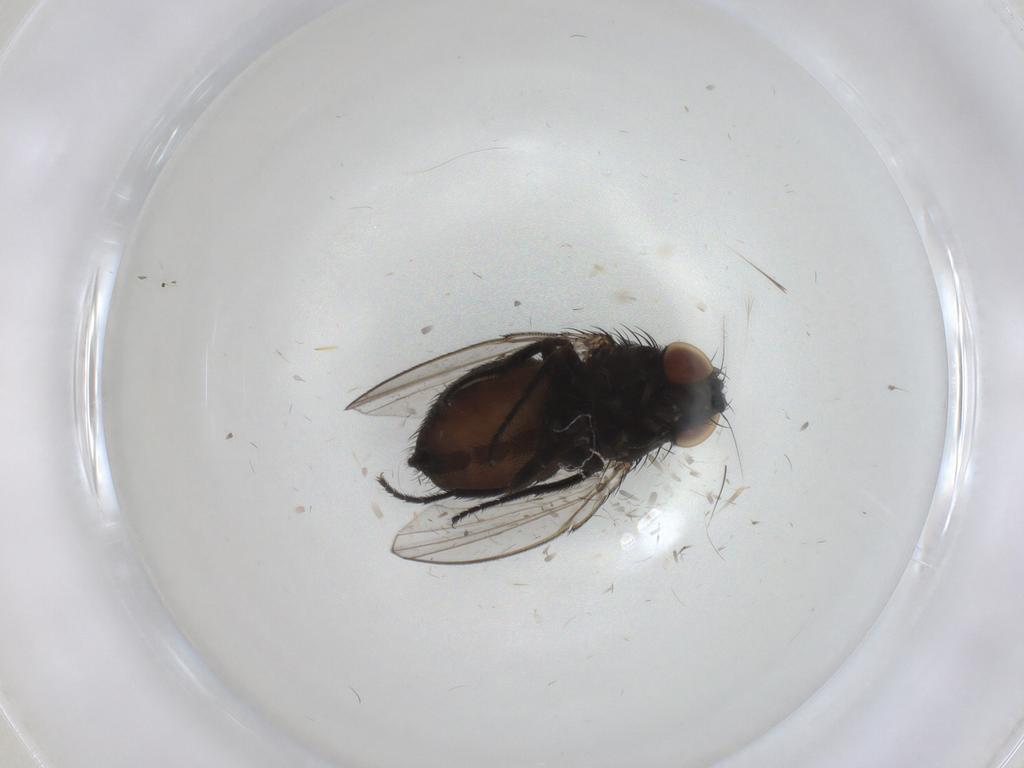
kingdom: Animalia
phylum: Arthropoda
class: Insecta
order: Diptera
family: Milichiidae
